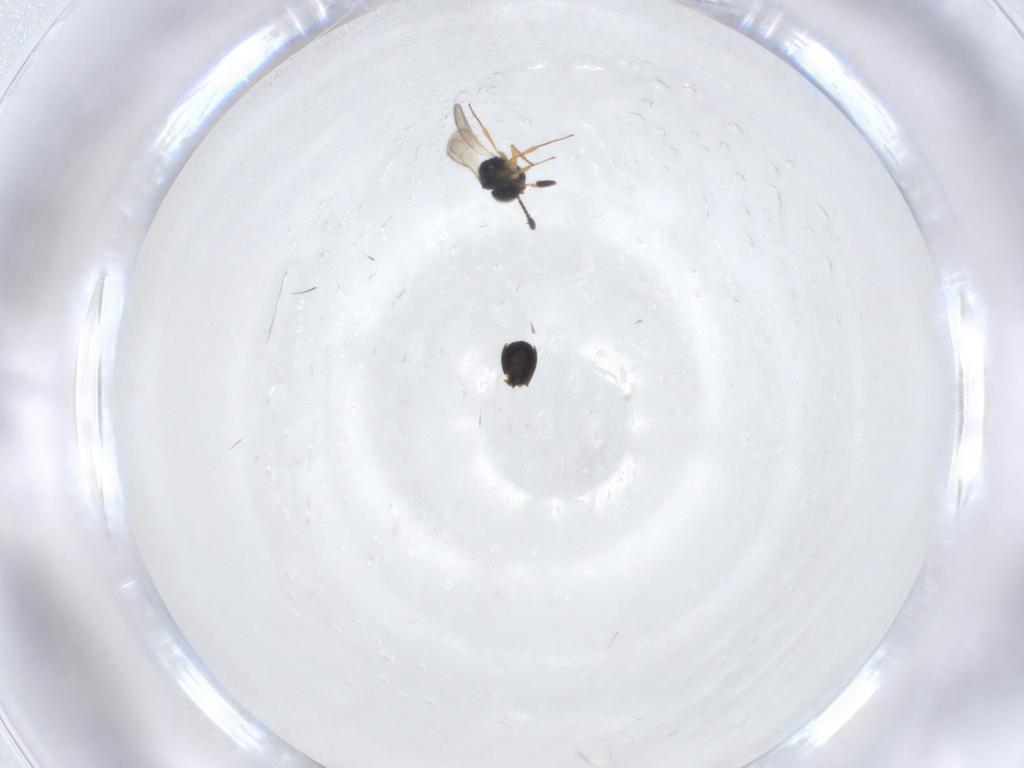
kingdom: Animalia
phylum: Arthropoda
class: Insecta
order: Hymenoptera
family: Scelionidae
